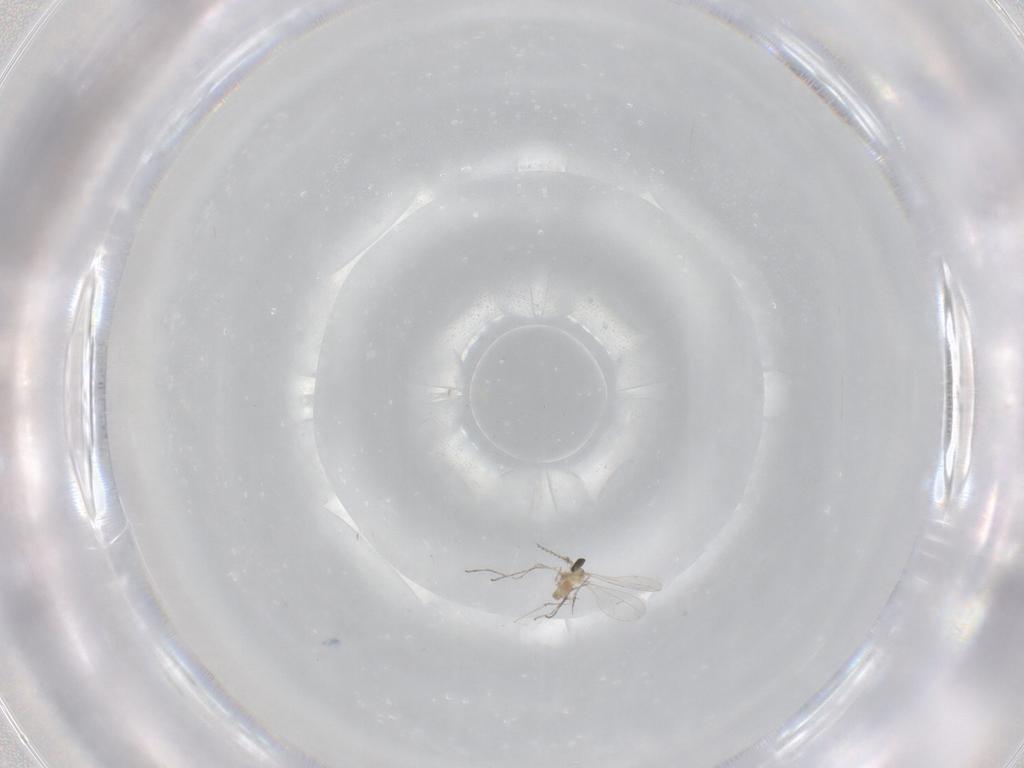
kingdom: Animalia
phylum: Arthropoda
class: Insecta
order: Diptera
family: Cecidomyiidae
